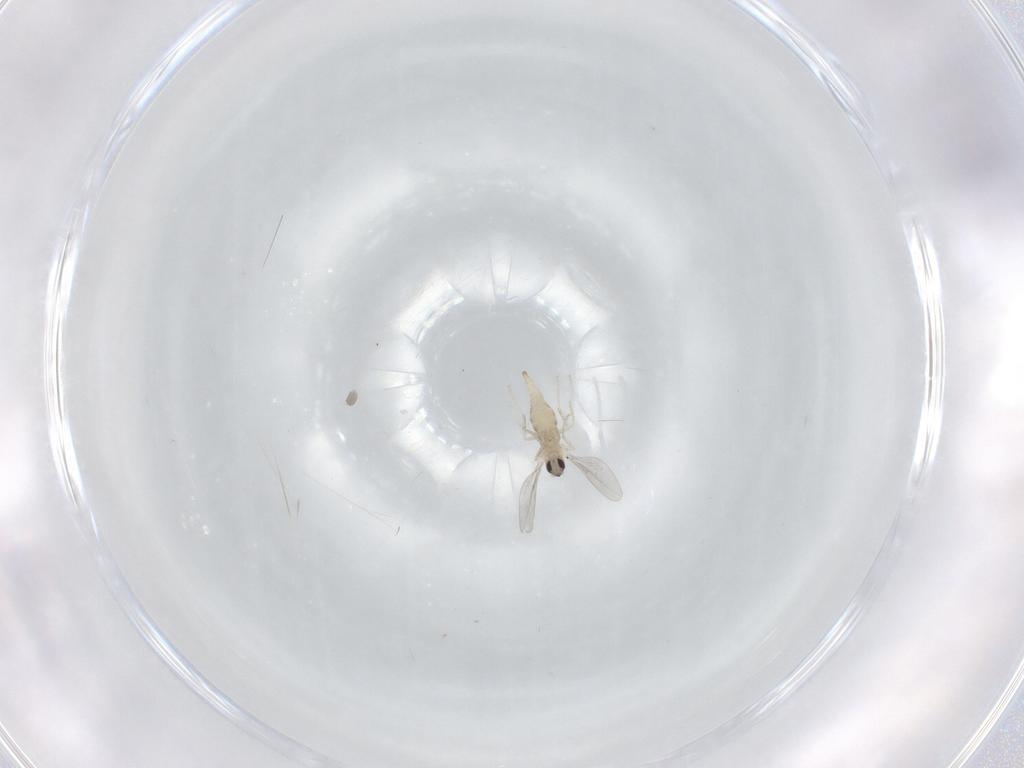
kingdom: Animalia
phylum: Arthropoda
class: Insecta
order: Diptera
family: Cecidomyiidae
